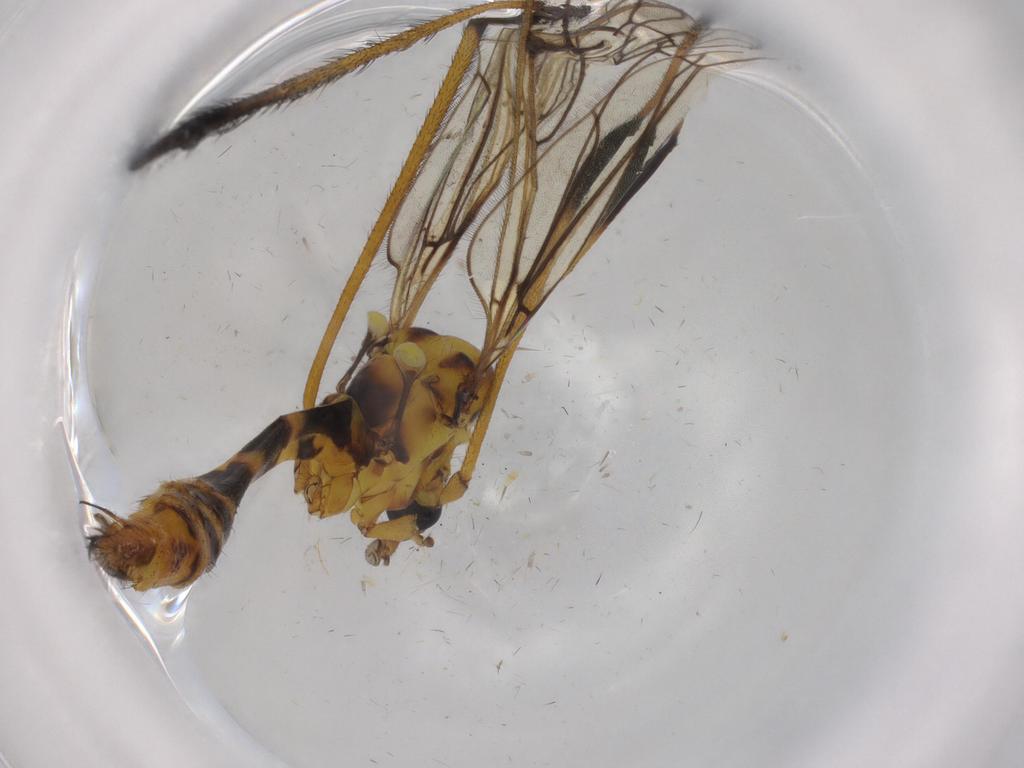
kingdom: Animalia
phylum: Arthropoda
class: Insecta
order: Diptera
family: Limoniidae
